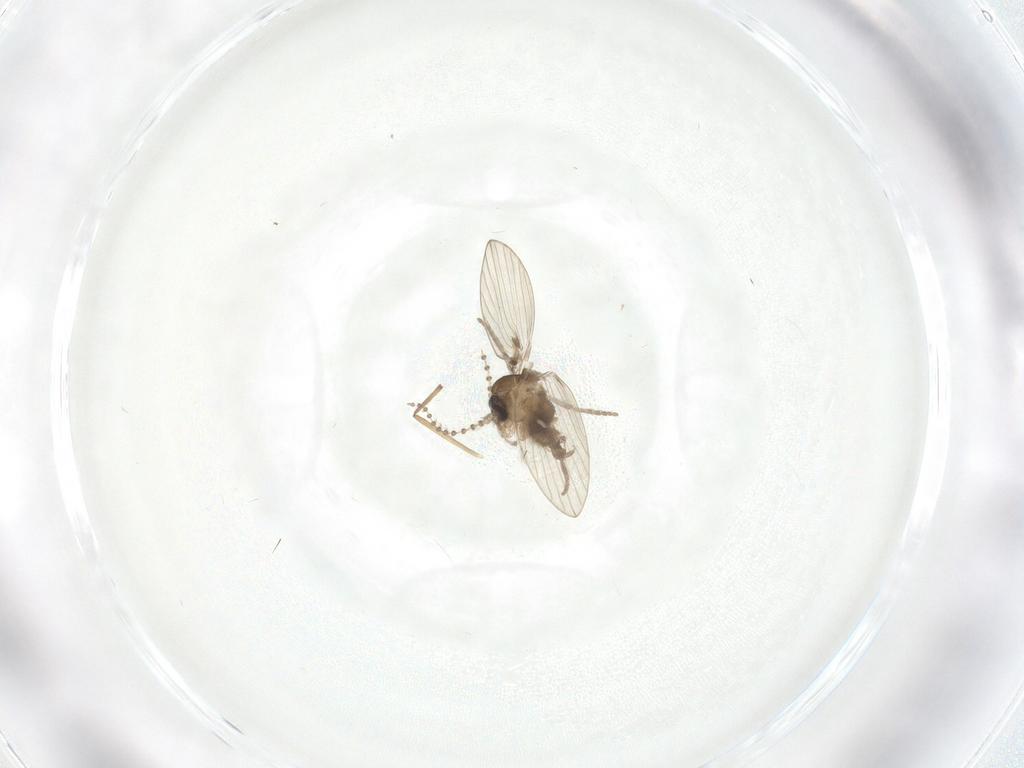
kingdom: Animalia
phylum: Arthropoda
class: Insecta
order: Diptera
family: Psychodidae
